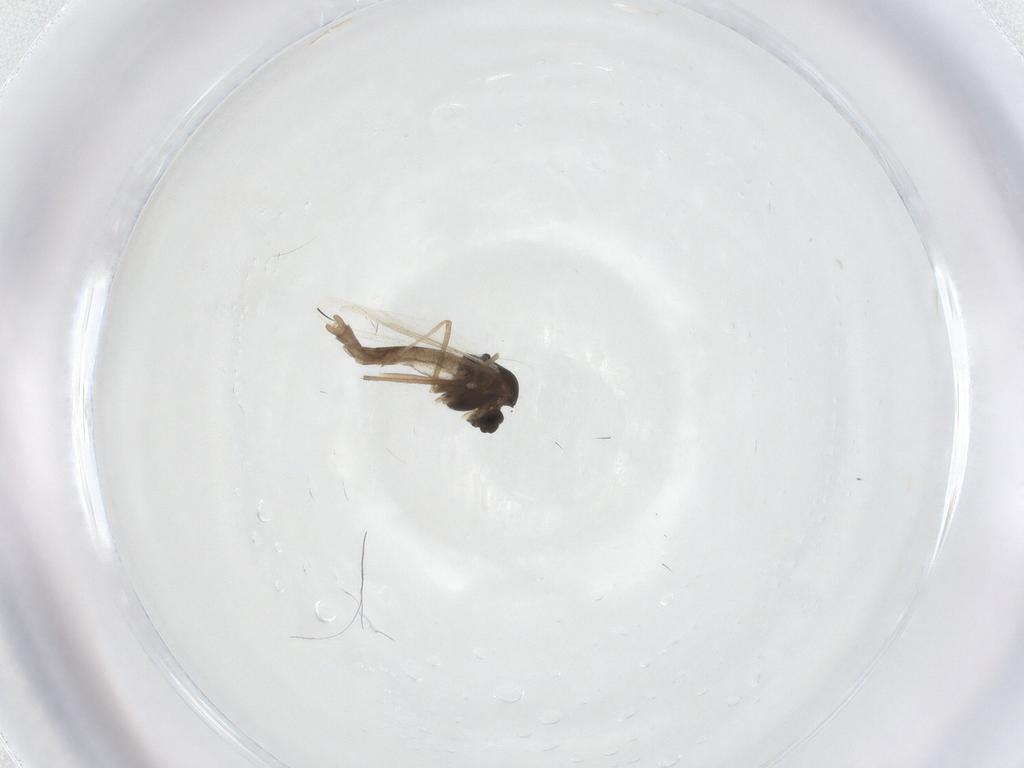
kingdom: Animalia
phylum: Arthropoda
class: Insecta
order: Diptera
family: Chironomidae
